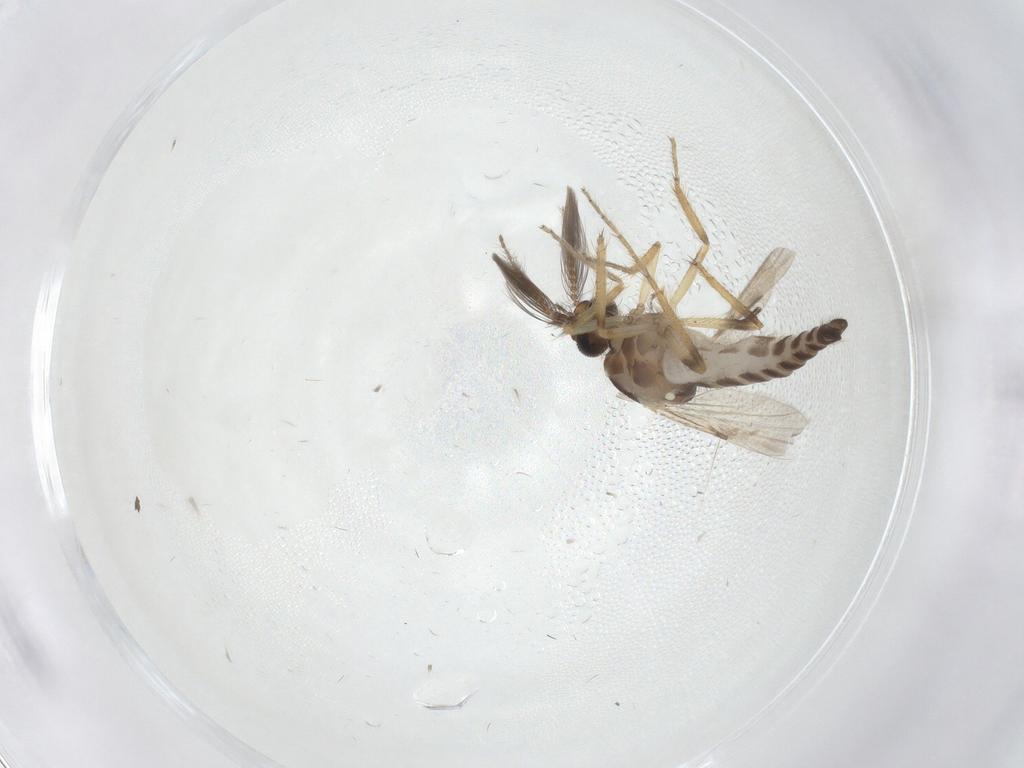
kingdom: Animalia
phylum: Arthropoda
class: Insecta
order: Diptera
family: Ceratopogonidae
